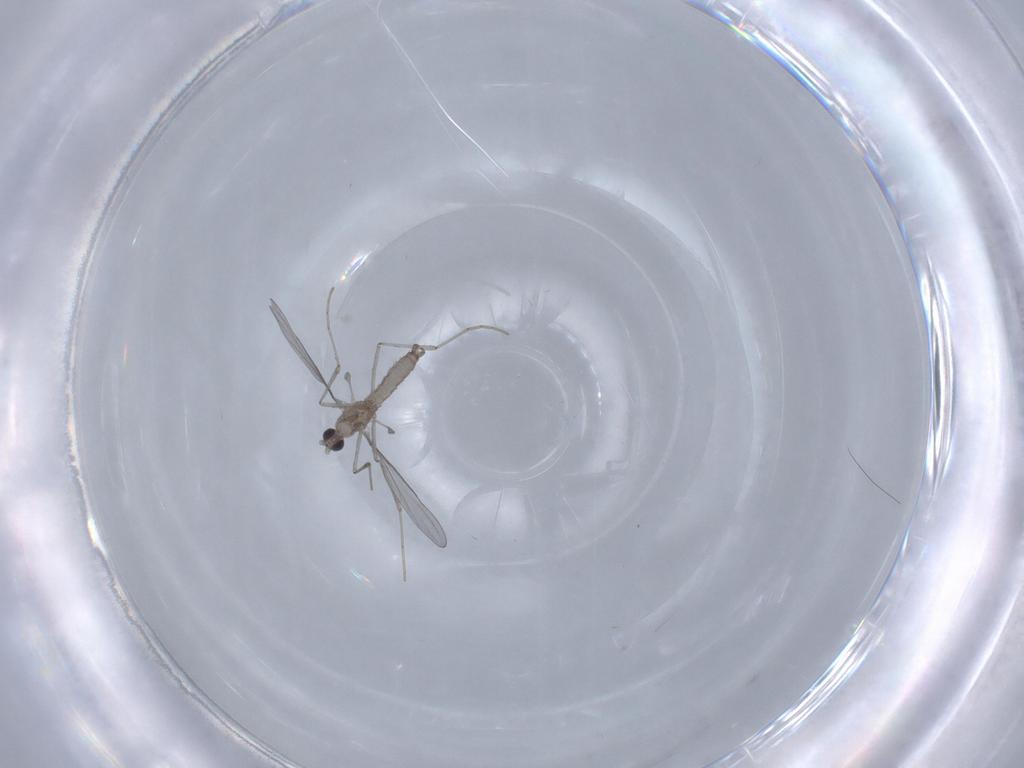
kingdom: Animalia
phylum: Arthropoda
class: Insecta
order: Diptera
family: Cecidomyiidae
